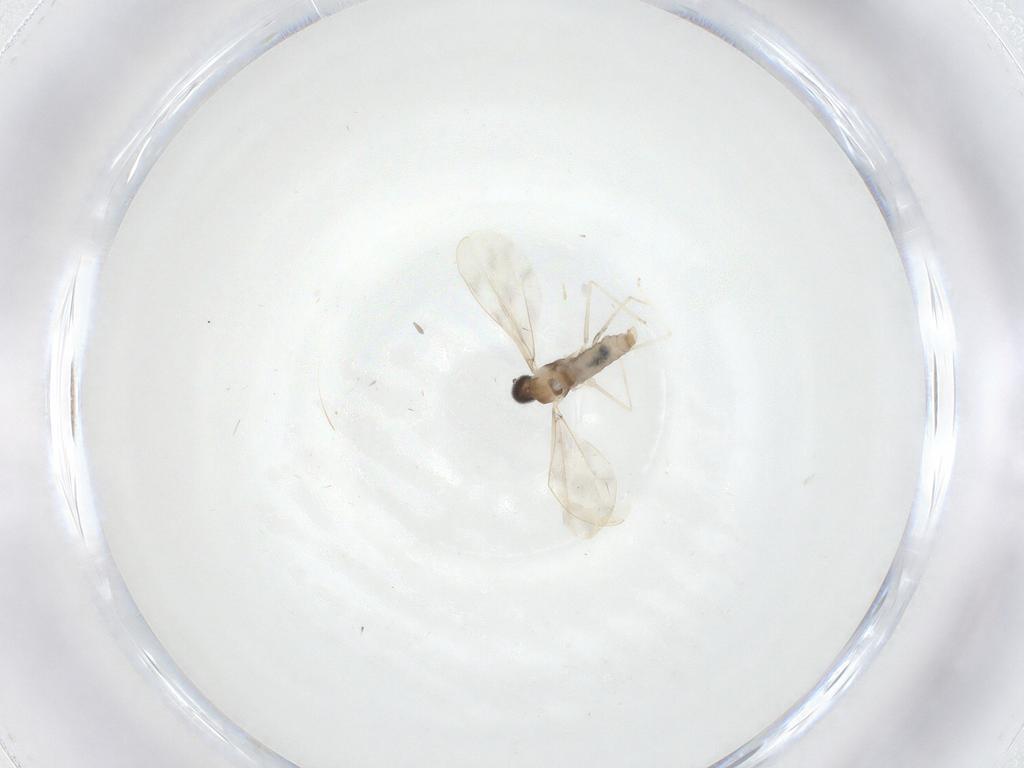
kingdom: Animalia
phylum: Arthropoda
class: Insecta
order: Diptera
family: Cecidomyiidae
